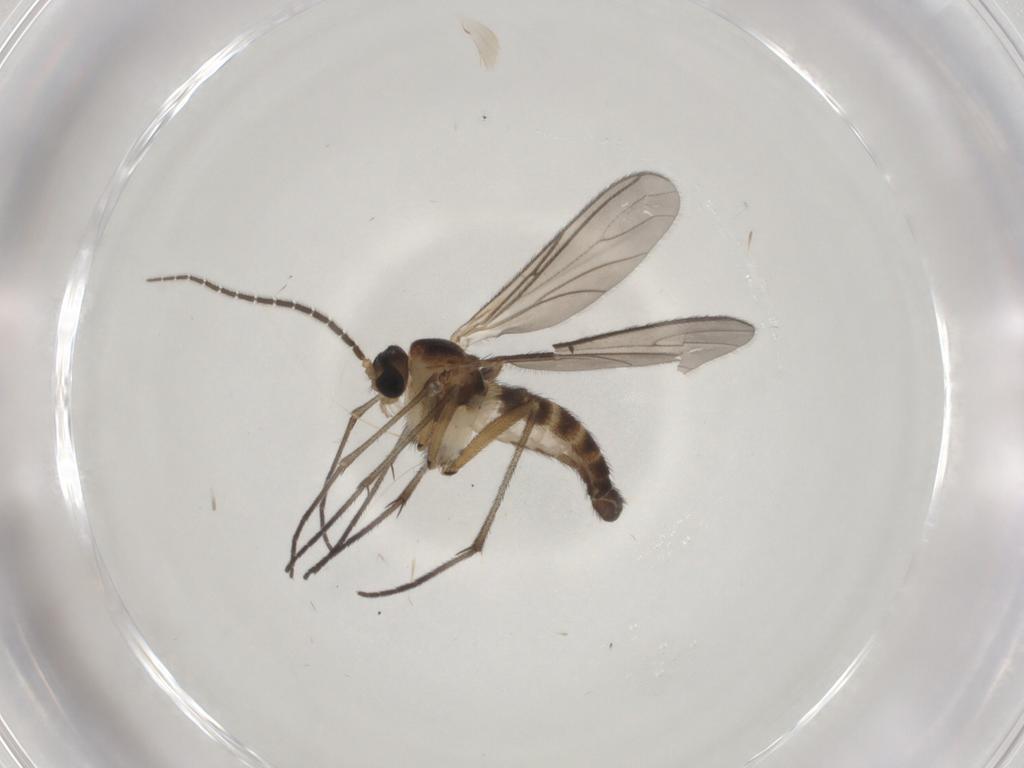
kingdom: Animalia
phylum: Arthropoda
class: Insecta
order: Diptera
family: Sciaridae
